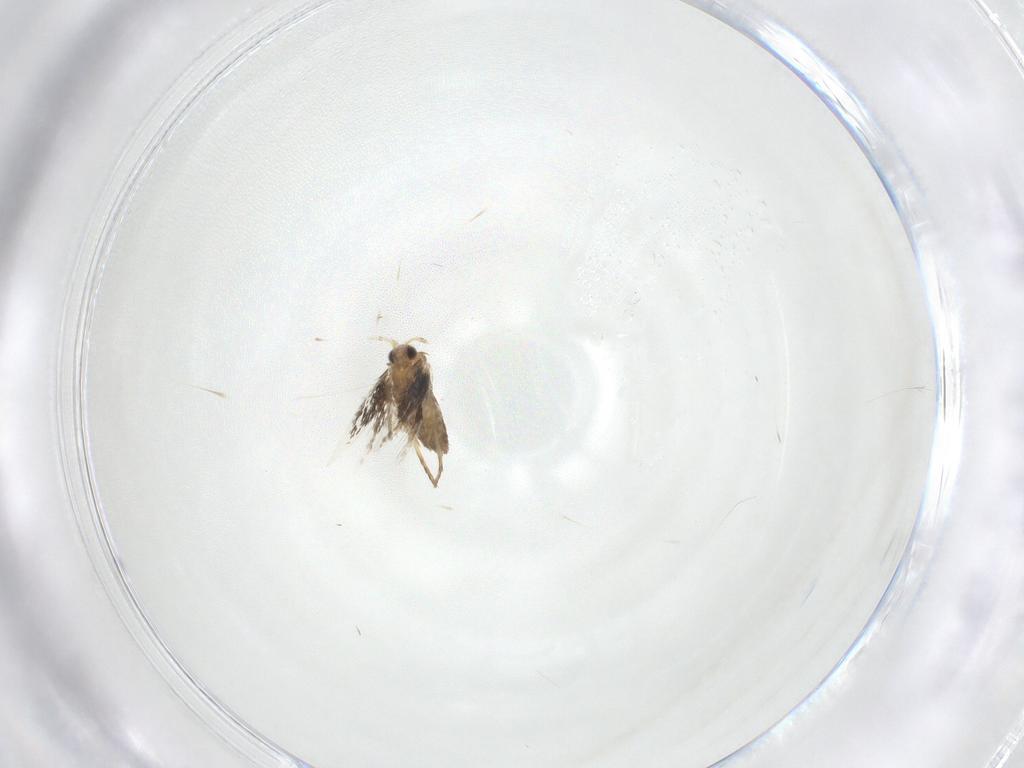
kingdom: Animalia
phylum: Arthropoda
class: Insecta
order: Lepidoptera
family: Nepticulidae
